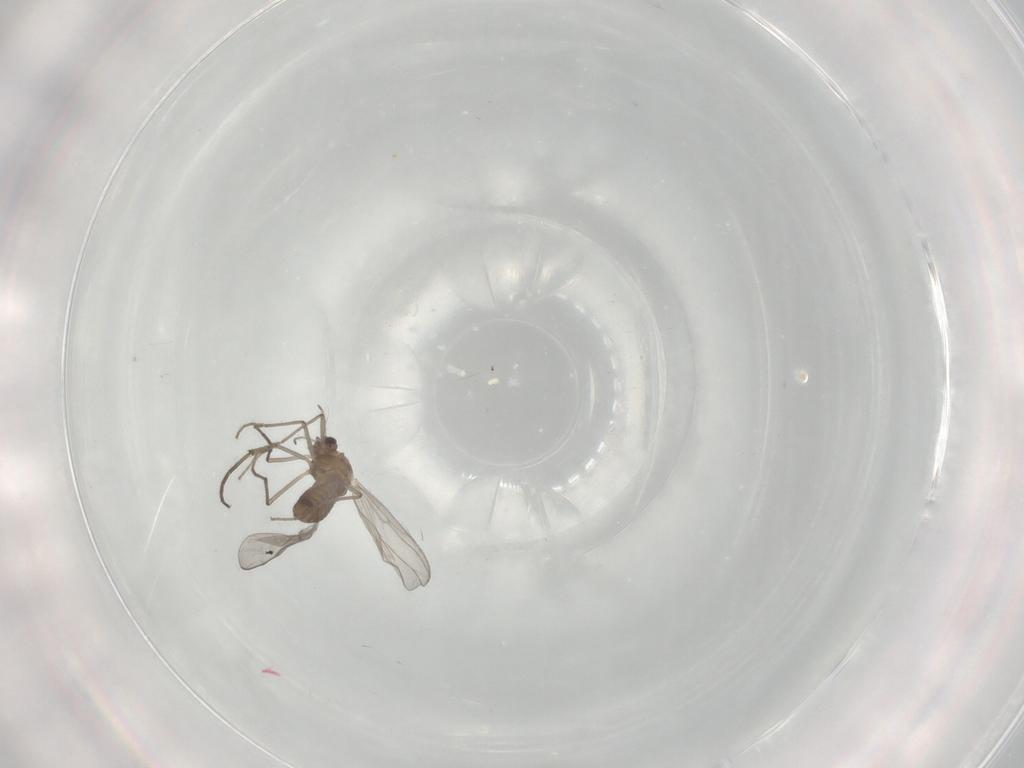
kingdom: Animalia
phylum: Arthropoda
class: Insecta
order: Diptera
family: Chironomidae
